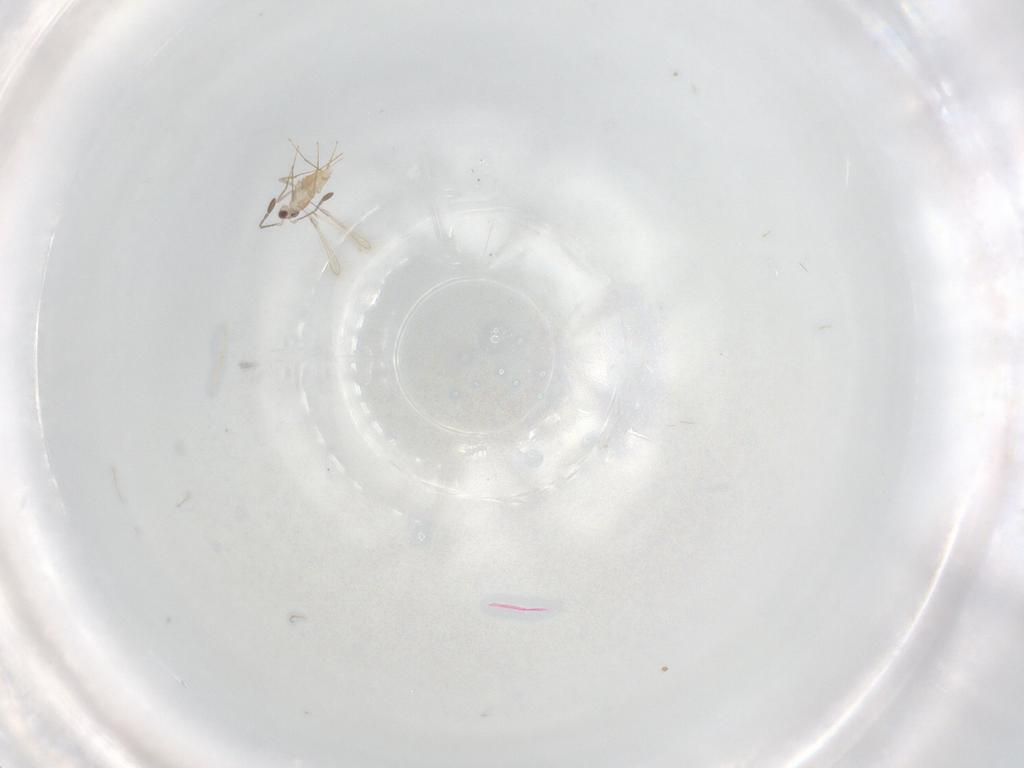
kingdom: Animalia
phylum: Arthropoda
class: Insecta
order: Hymenoptera
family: Mymaridae
